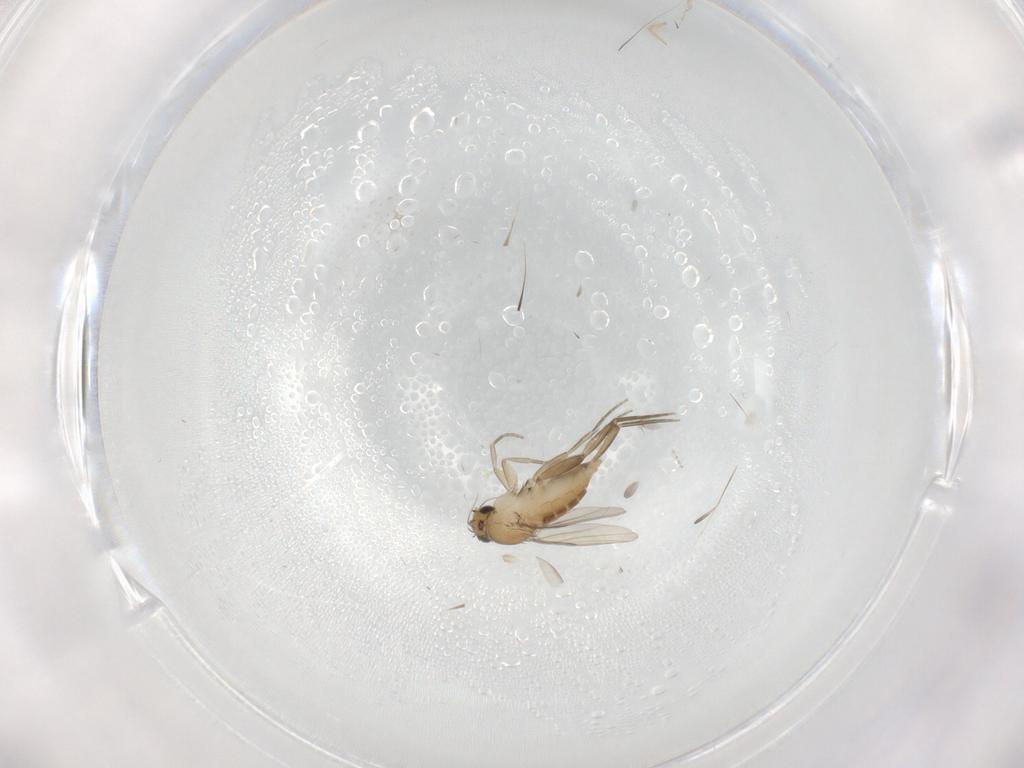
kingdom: Animalia
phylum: Arthropoda
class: Insecta
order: Diptera
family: Phoridae
